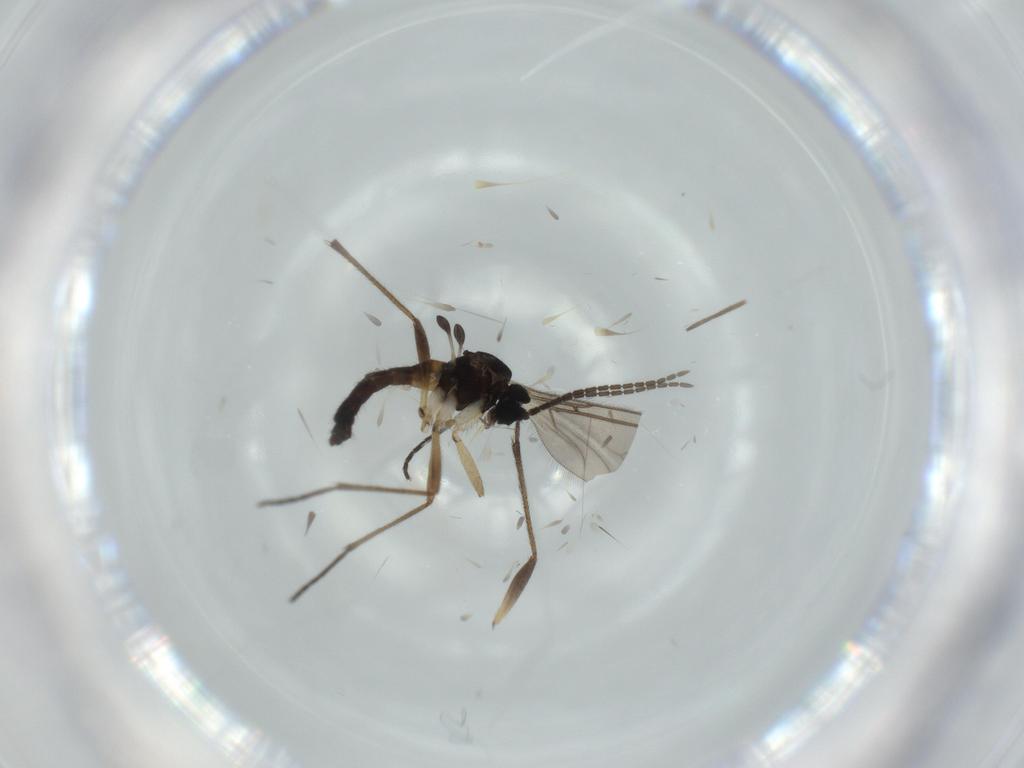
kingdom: Animalia
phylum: Arthropoda
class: Insecta
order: Diptera
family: Sciaridae
